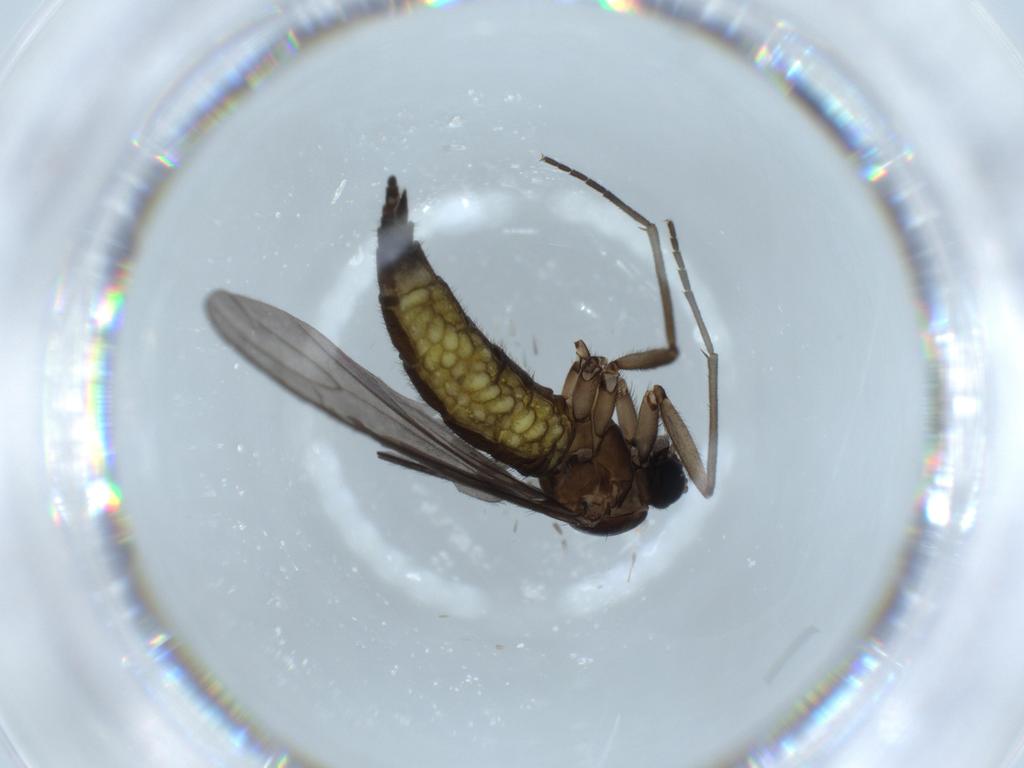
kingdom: Animalia
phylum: Arthropoda
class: Insecta
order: Diptera
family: Sciaridae
